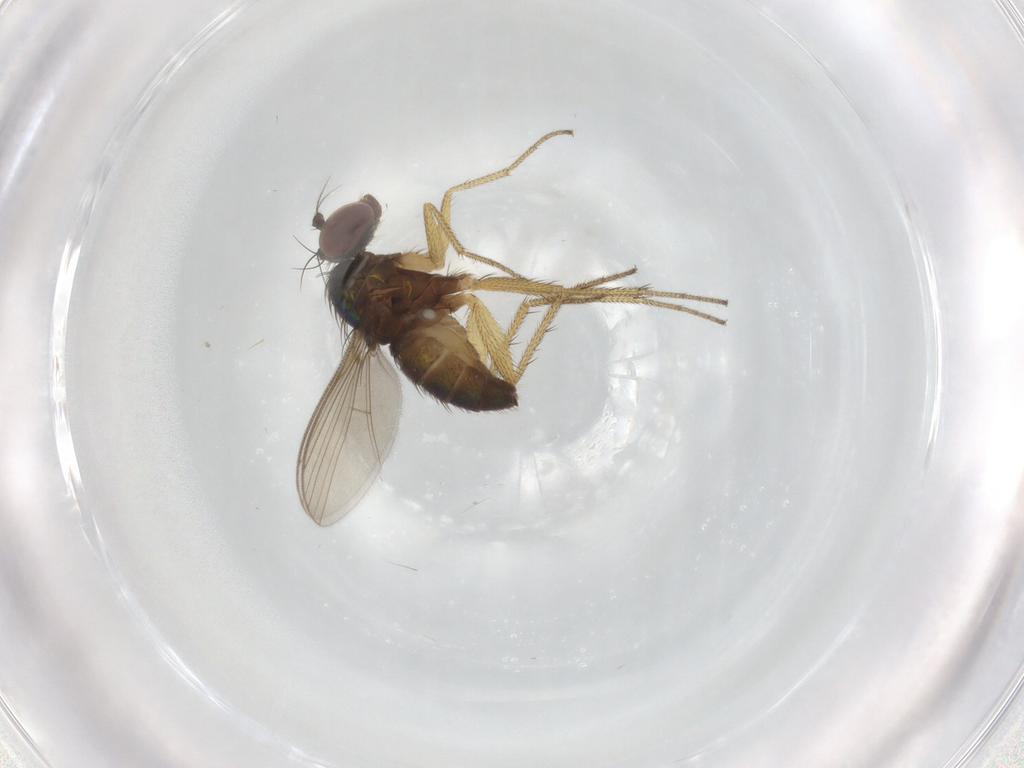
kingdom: Animalia
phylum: Arthropoda
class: Insecta
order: Diptera
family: Dolichopodidae
